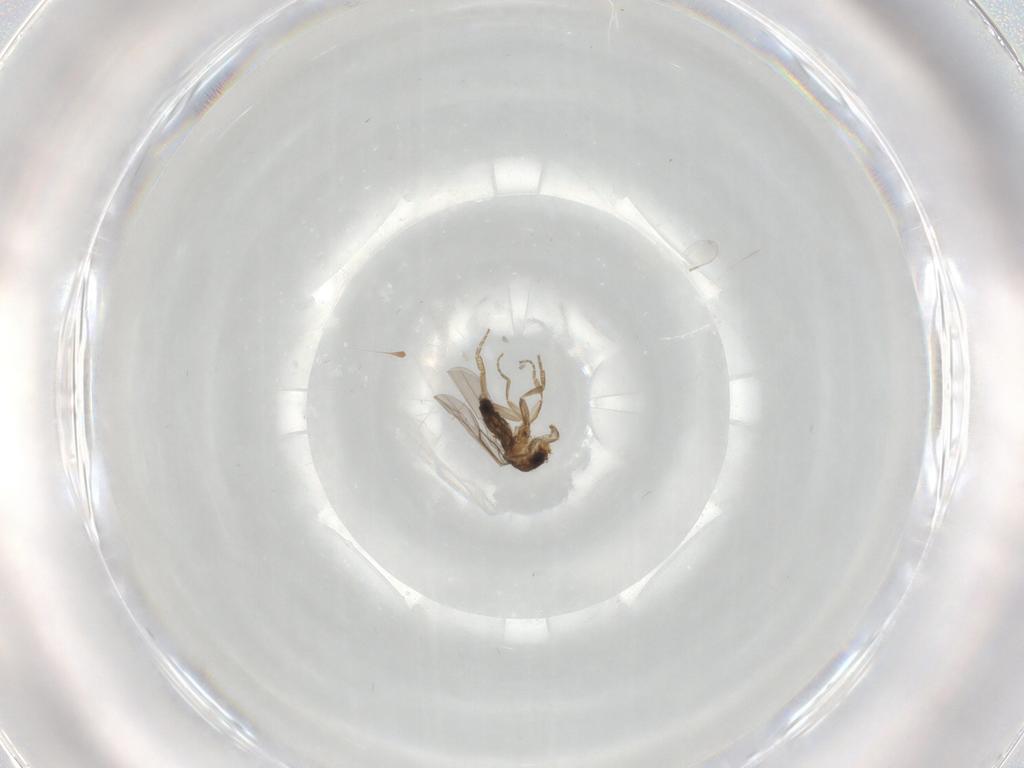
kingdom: Animalia
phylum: Arthropoda
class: Insecta
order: Diptera
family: Phoridae
